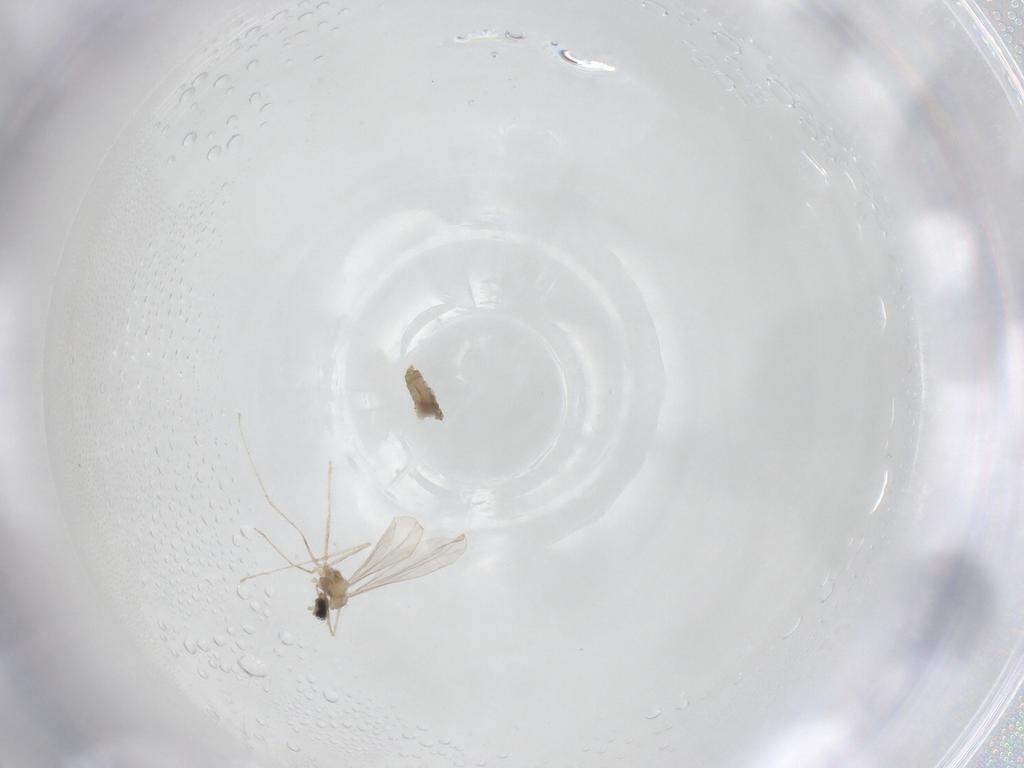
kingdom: Animalia
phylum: Arthropoda
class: Insecta
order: Diptera
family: Cecidomyiidae
